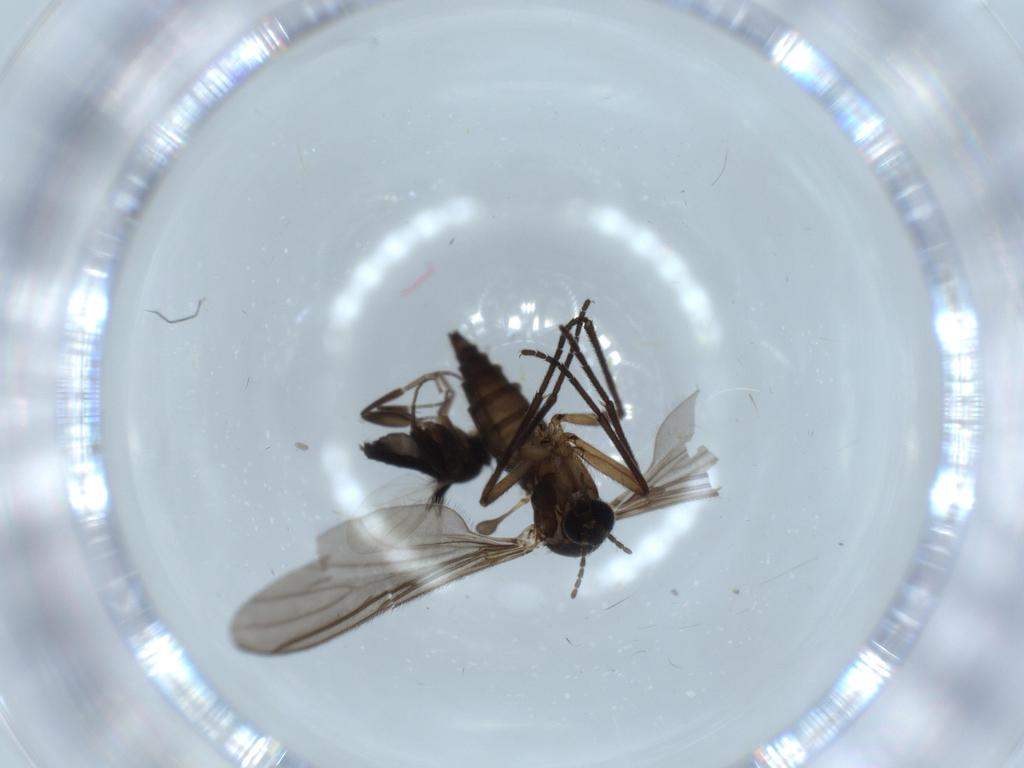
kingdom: Animalia
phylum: Arthropoda
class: Insecta
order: Diptera
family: Phoridae
